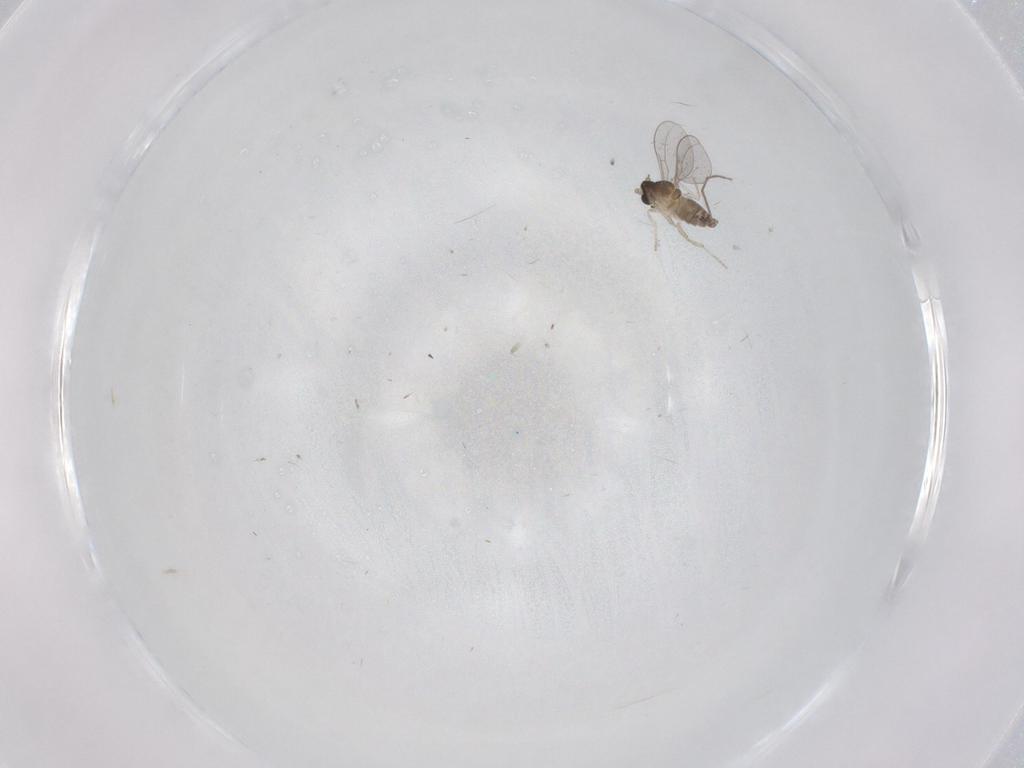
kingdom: Animalia
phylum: Arthropoda
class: Insecta
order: Diptera
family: Cecidomyiidae
